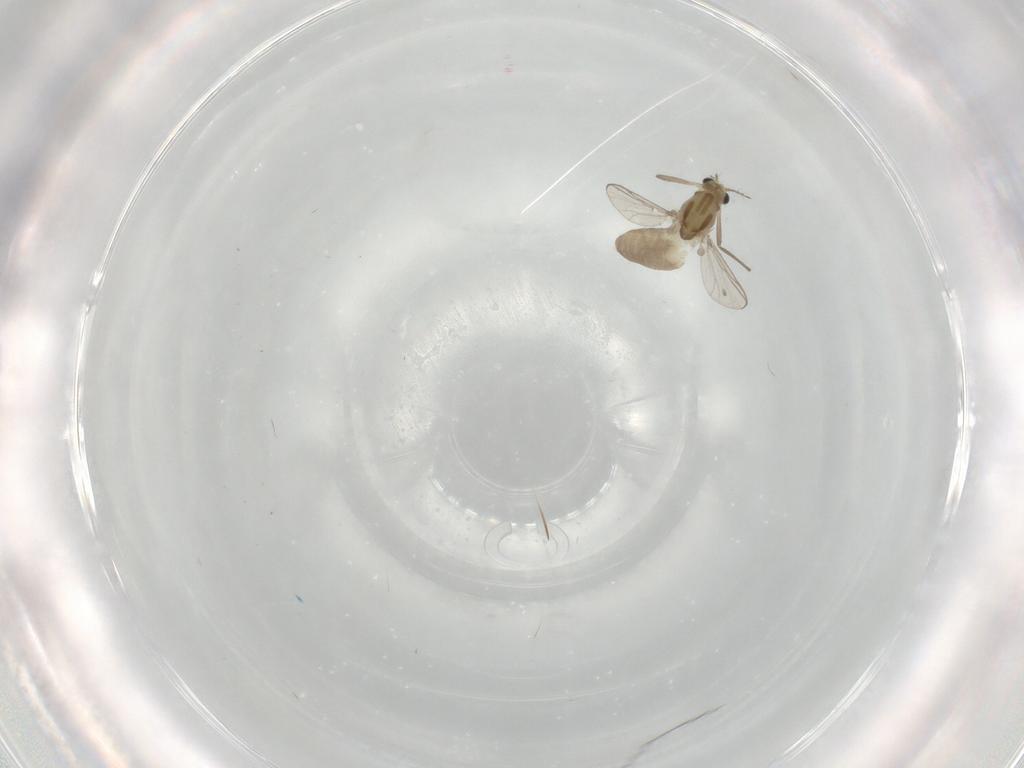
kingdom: Animalia
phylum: Arthropoda
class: Insecta
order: Diptera
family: Chironomidae
